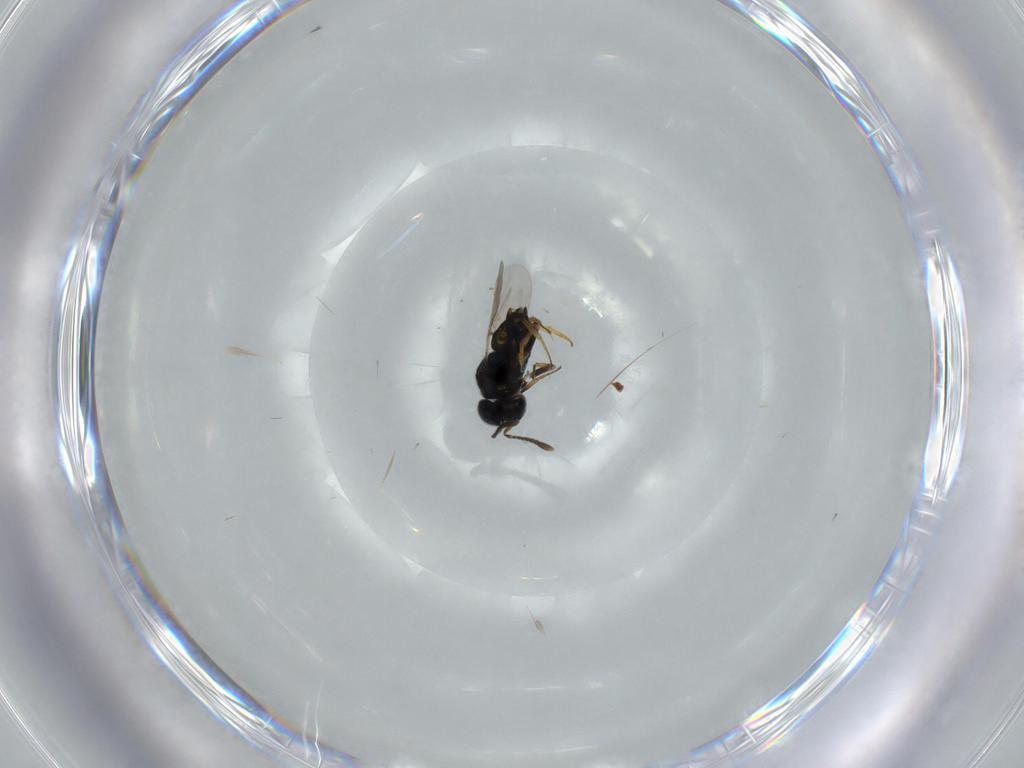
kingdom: Animalia
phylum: Arthropoda
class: Insecta
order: Hymenoptera
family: Encyrtidae
